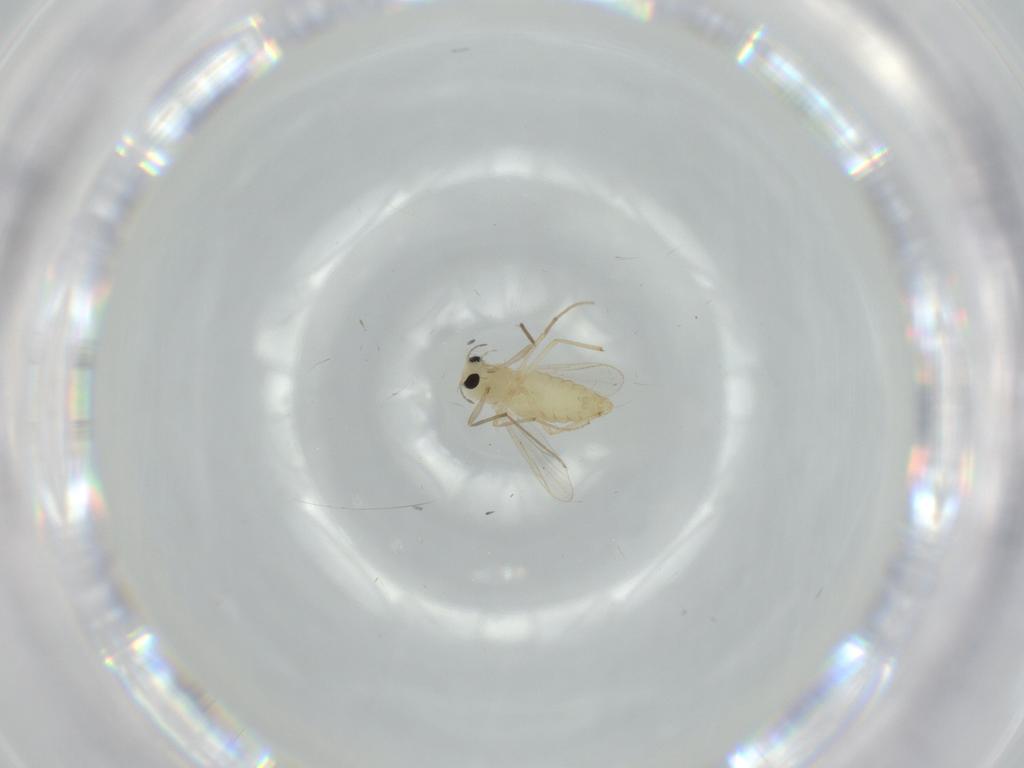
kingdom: Animalia
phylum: Arthropoda
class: Insecta
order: Diptera
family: Chironomidae
